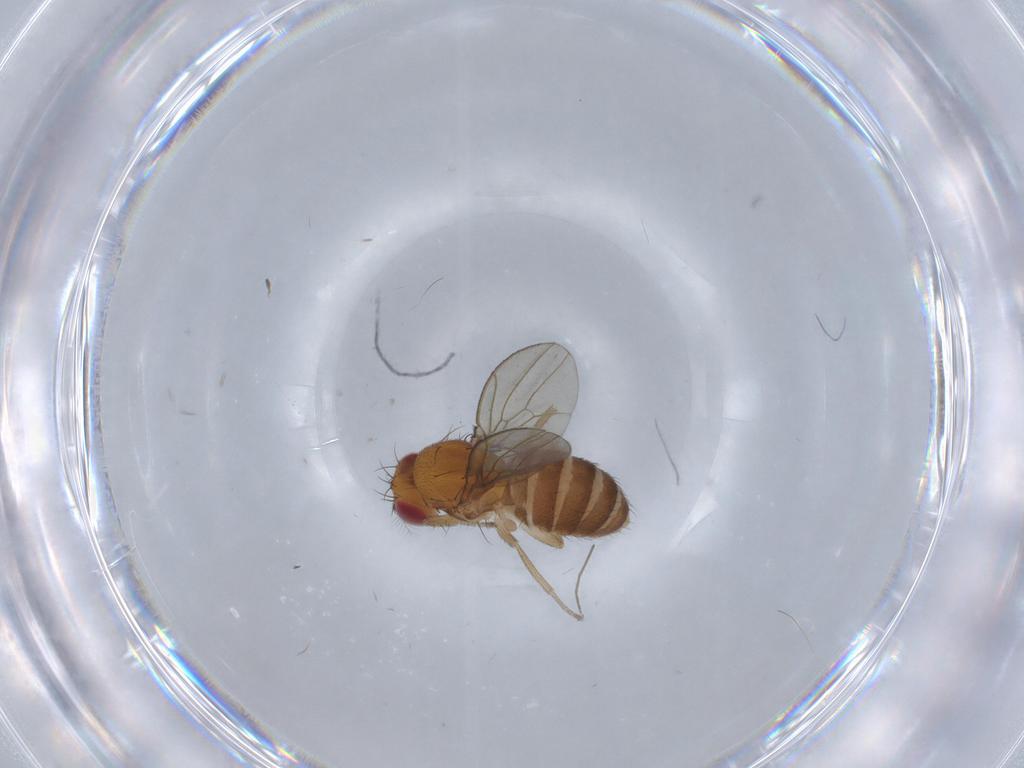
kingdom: Animalia
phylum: Arthropoda
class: Insecta
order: Diptera
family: Drosophilidae
